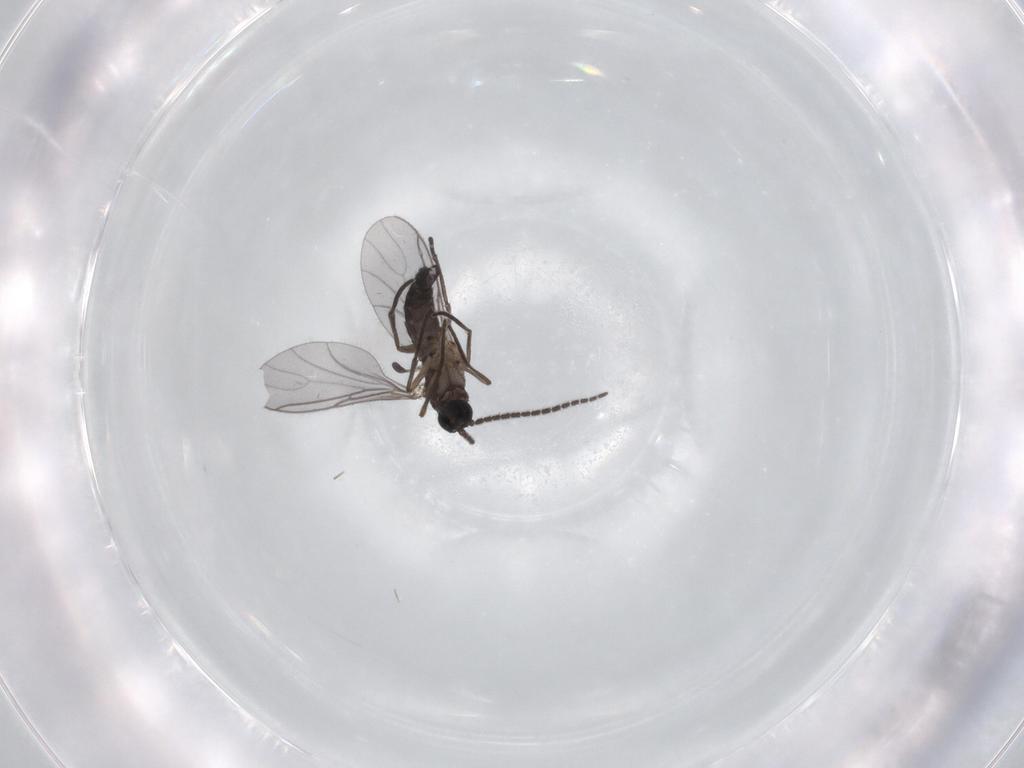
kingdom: Animalia
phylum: Arthropoda
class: Insecta
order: Diptera
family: Sciaridae
